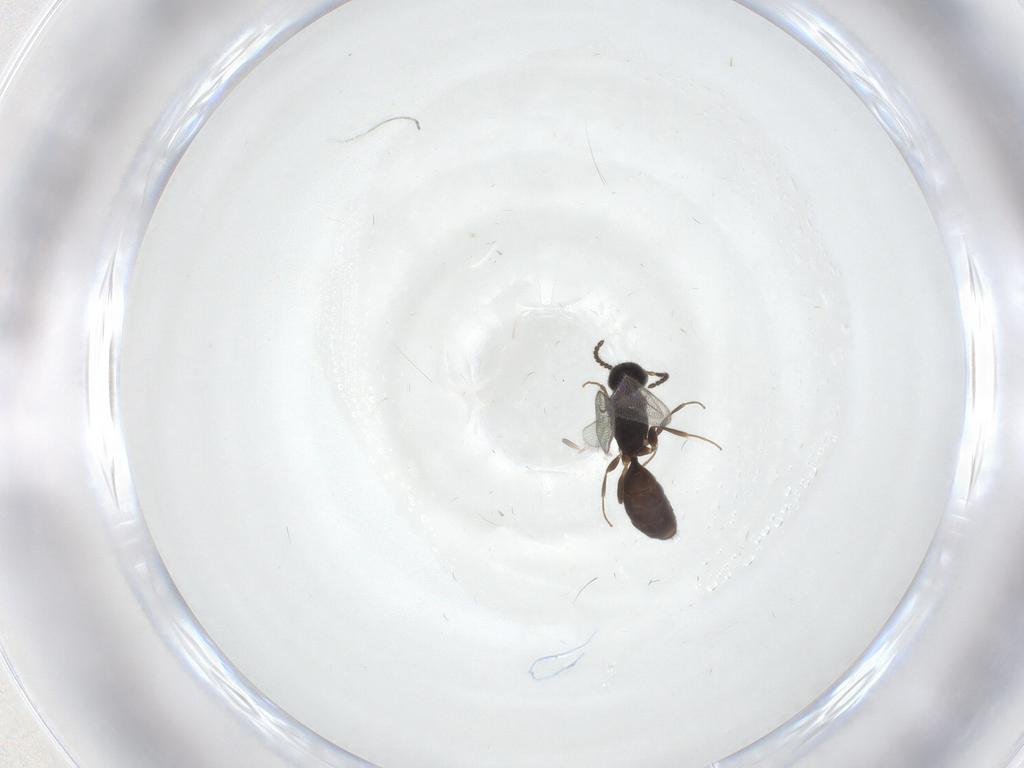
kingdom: Animalia
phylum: Arthropoda
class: Insecta
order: Hymenoptera
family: Bethylidae
